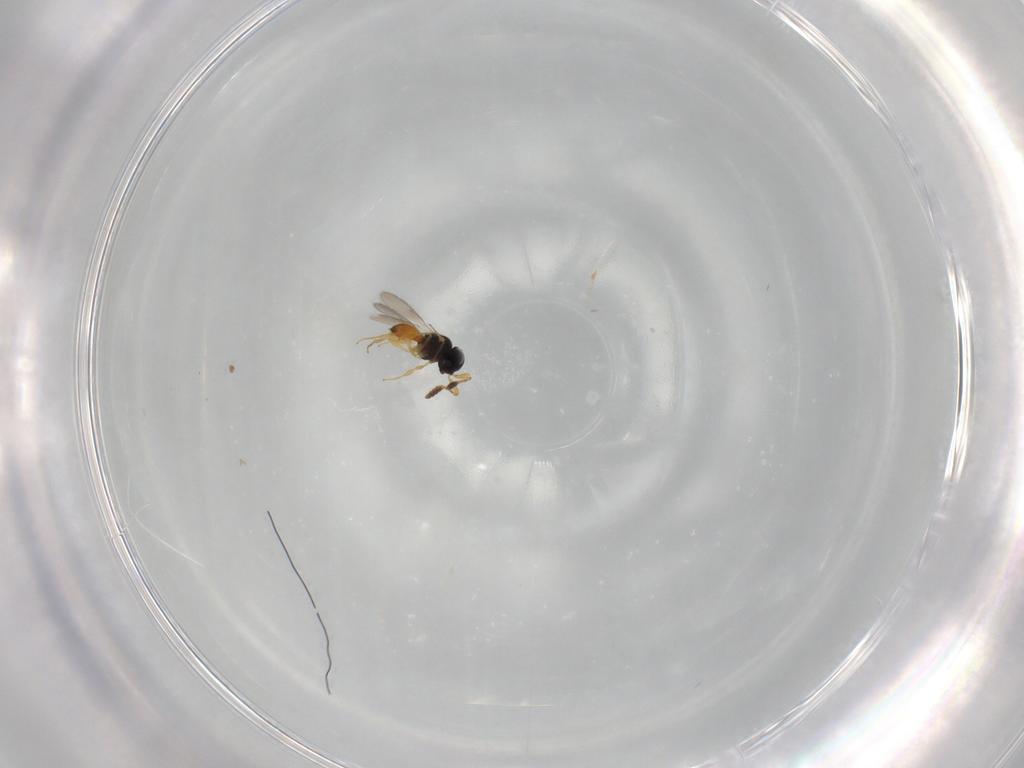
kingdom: Animalia
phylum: Arthropoda
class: Insecta
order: Hymenoptera
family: Scelionidae
